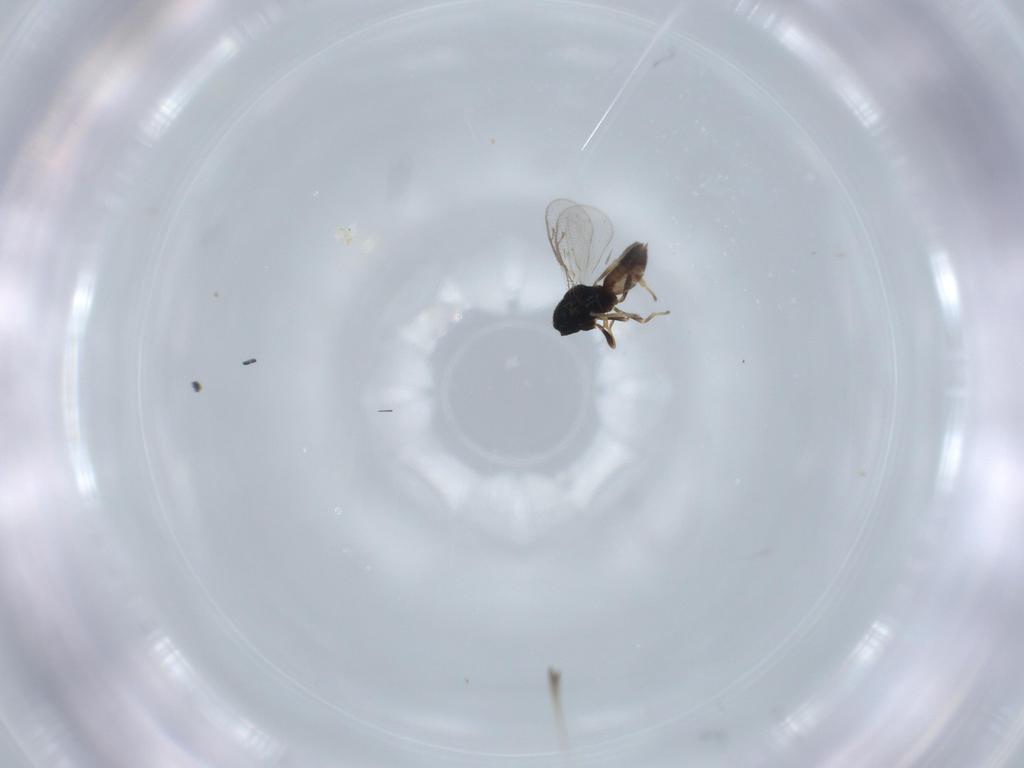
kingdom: Animalia
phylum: Arthropoda
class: Insecta
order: Hymenoptera
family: Pteromalidae
